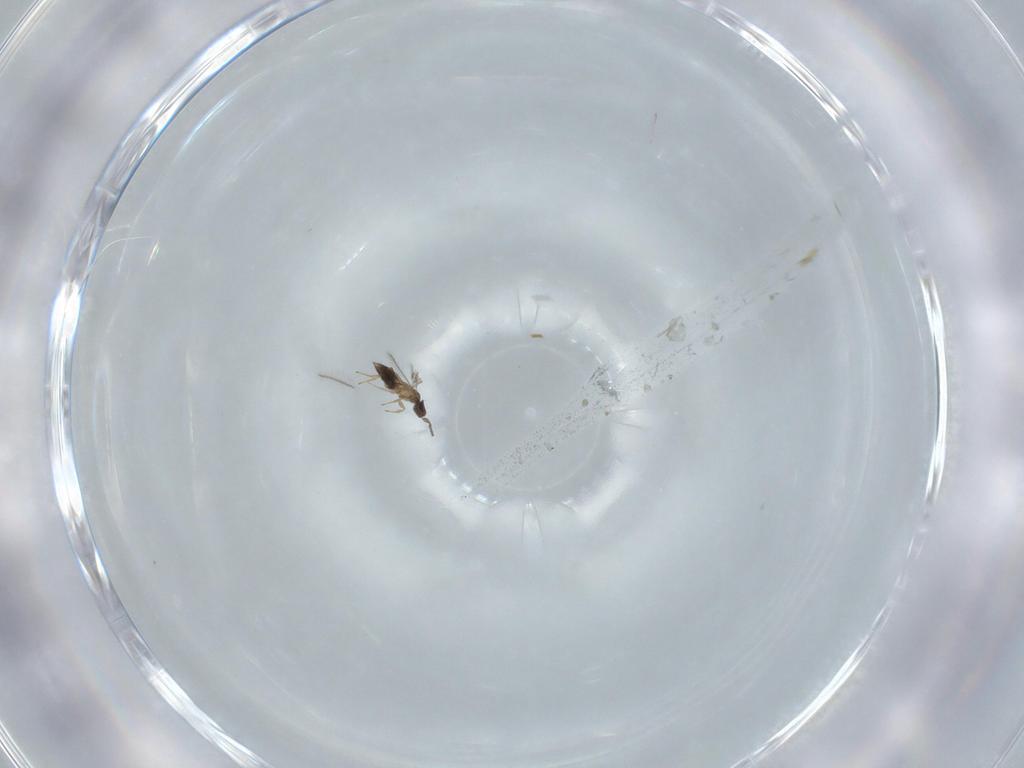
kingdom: Animalia
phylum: Arthropoda
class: Insecta
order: Hymenoptera
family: Mymaridae
